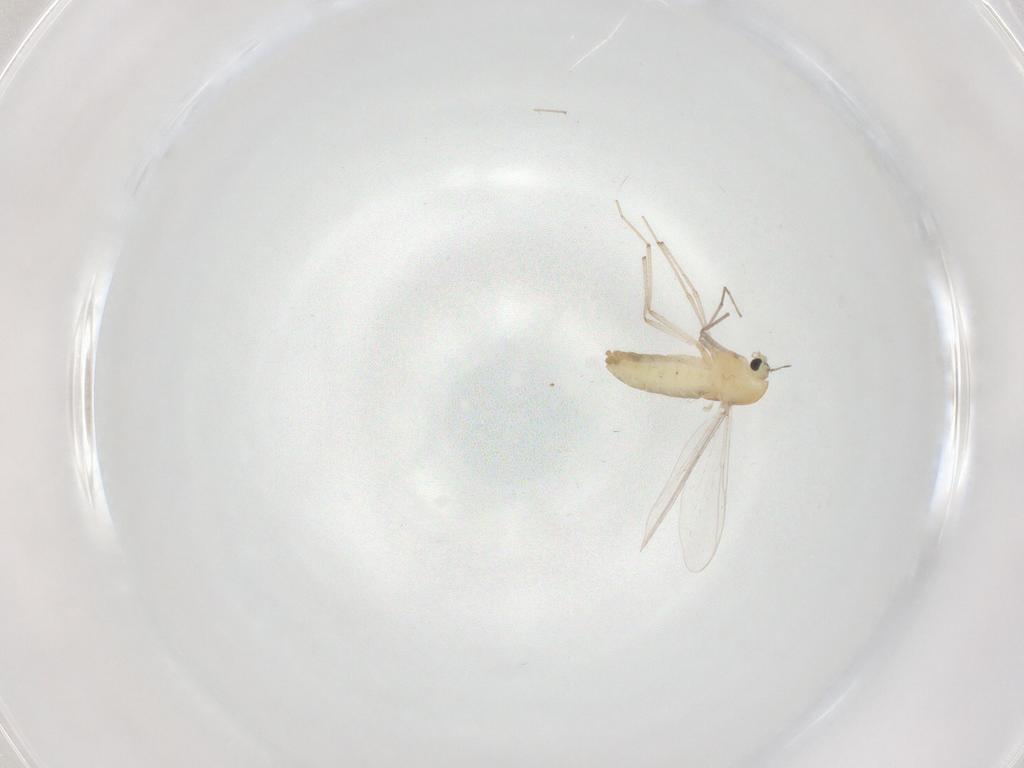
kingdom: Animalia
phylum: Arthropoda
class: Insecta
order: Diptera
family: Chironomidae
